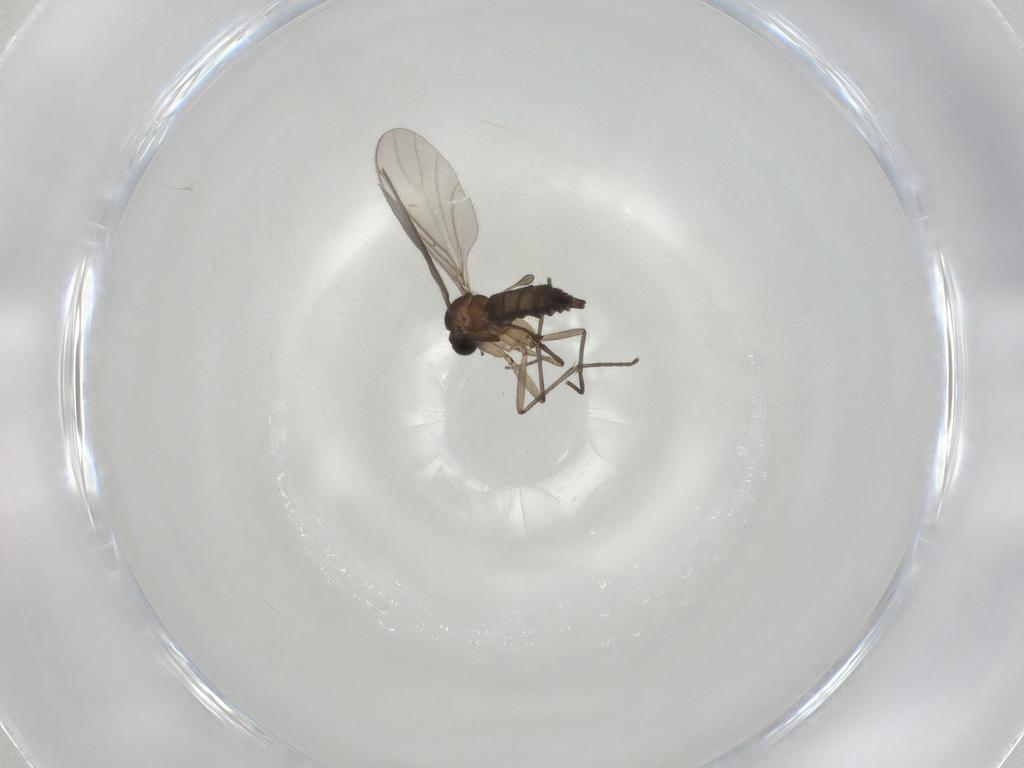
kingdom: Animalia
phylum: Arthropoda
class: Insecta
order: Diptera
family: Sciaridae
